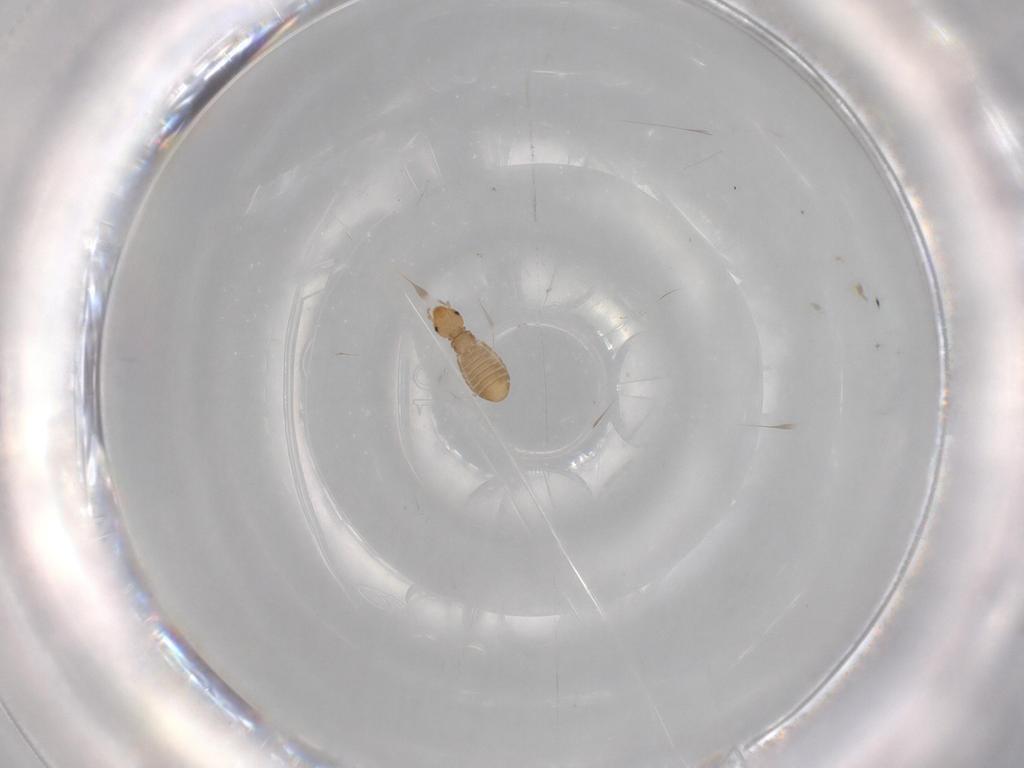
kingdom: Animalia
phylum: Arthropoda
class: Insecta
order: Psocodea
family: Liposcelididae
